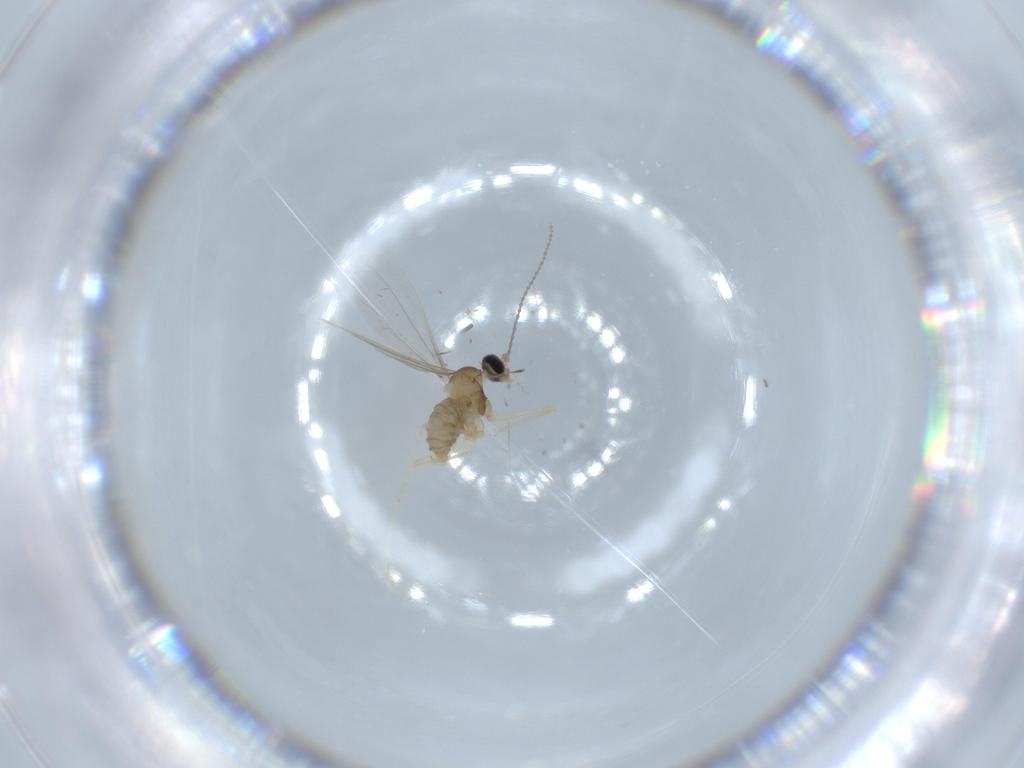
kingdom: Animalia
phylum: Arthropoda
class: Insecta
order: Diptera
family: Cecidomyiidae
